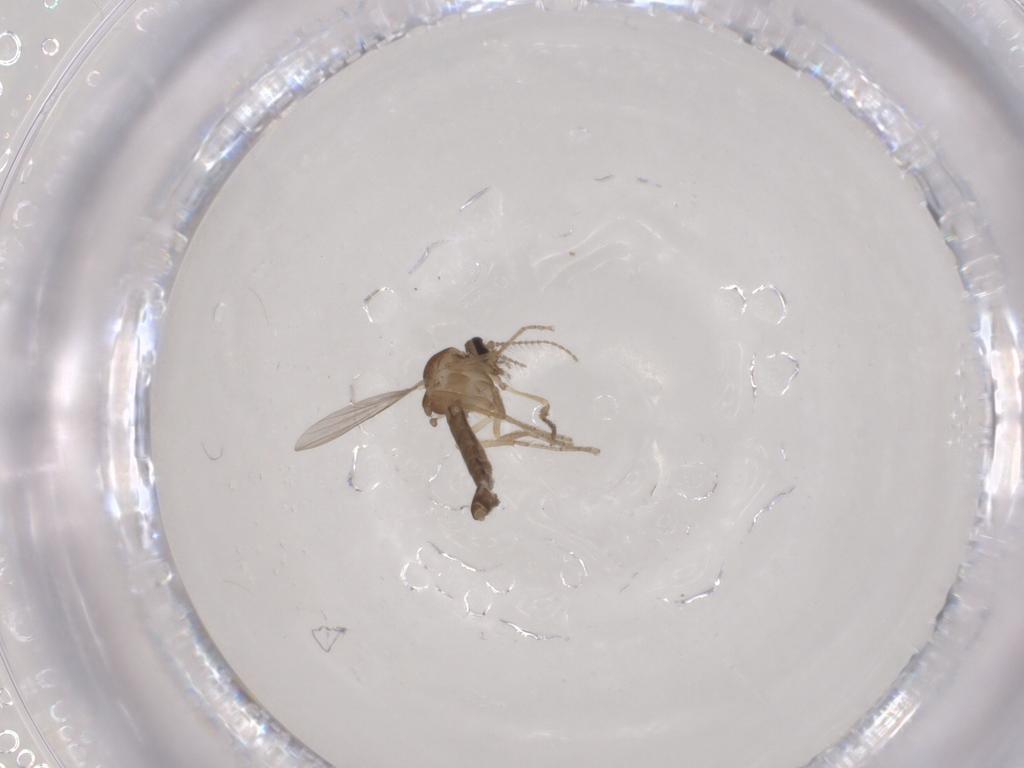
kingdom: Animalia
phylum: Arthropoda
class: Insecta
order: Diptera
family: Ceratopogonidae
